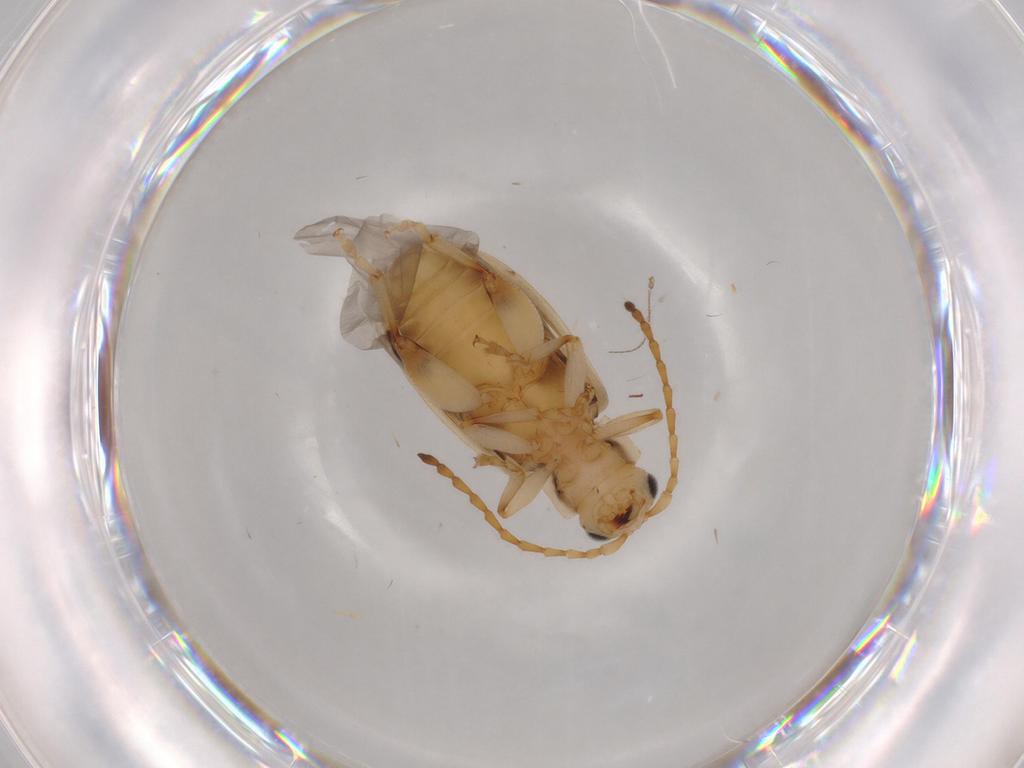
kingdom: Animalia
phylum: Arthropoda
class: Insecta
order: Coleoptera
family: Chrysomelidae
